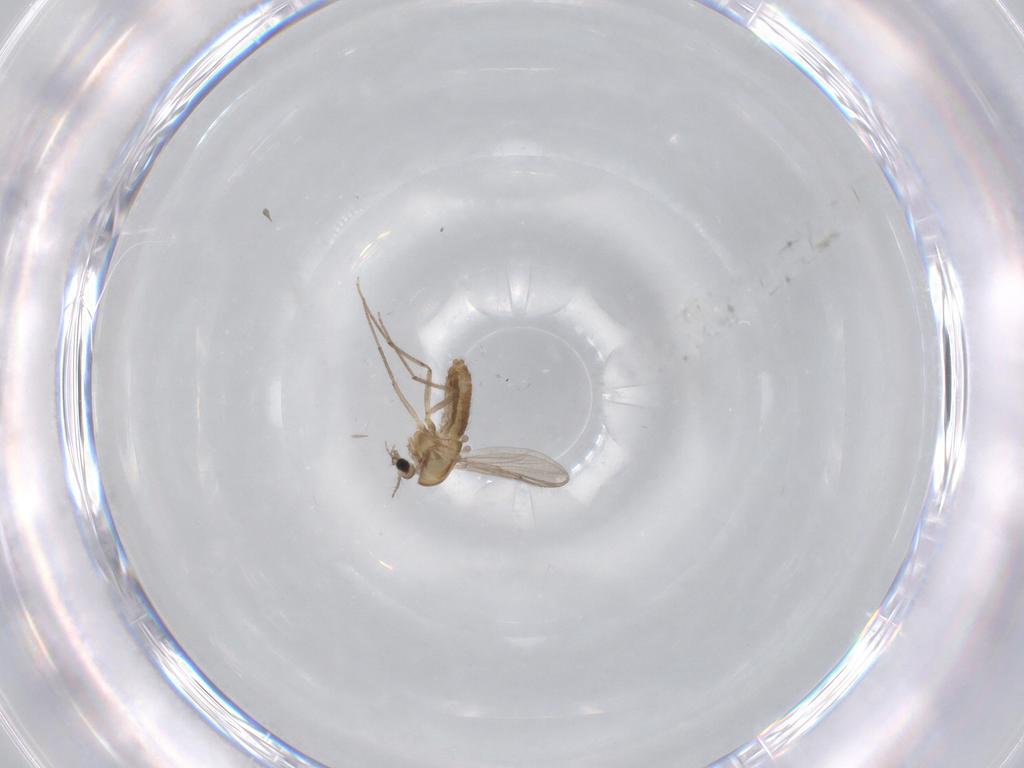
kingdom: Animalia
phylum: Arthropoda
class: Insecta
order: Diptera
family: Chironomidae
